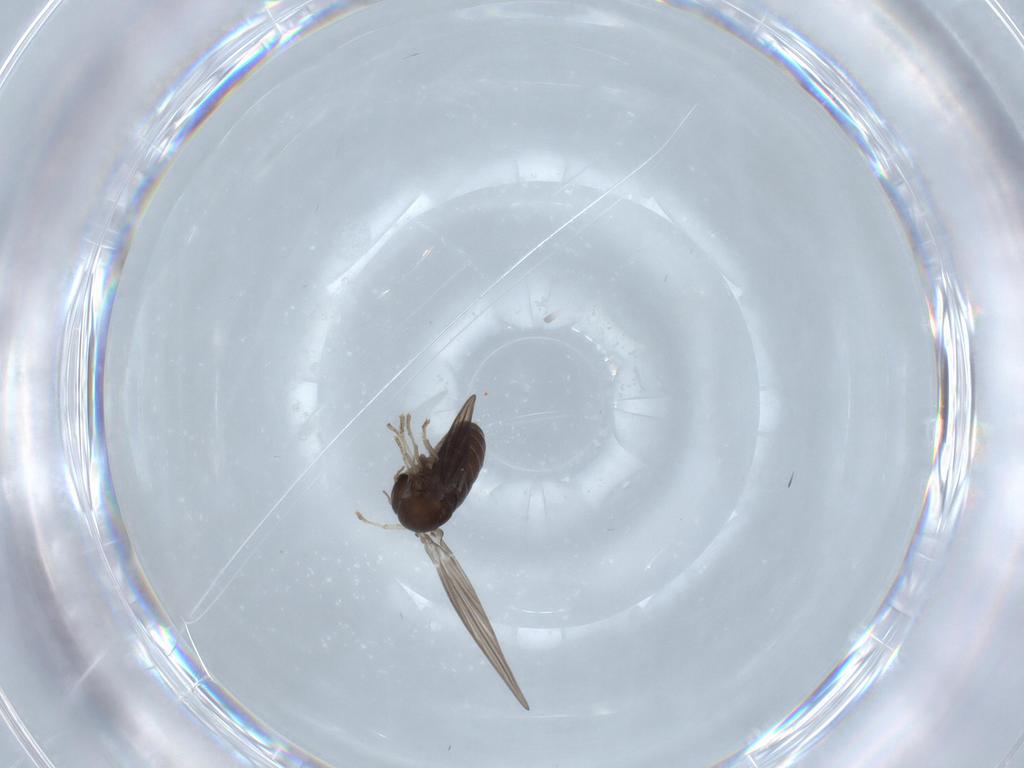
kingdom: Animalia
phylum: Arthropoda
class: Insecta
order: Diptera
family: Psychodidae
